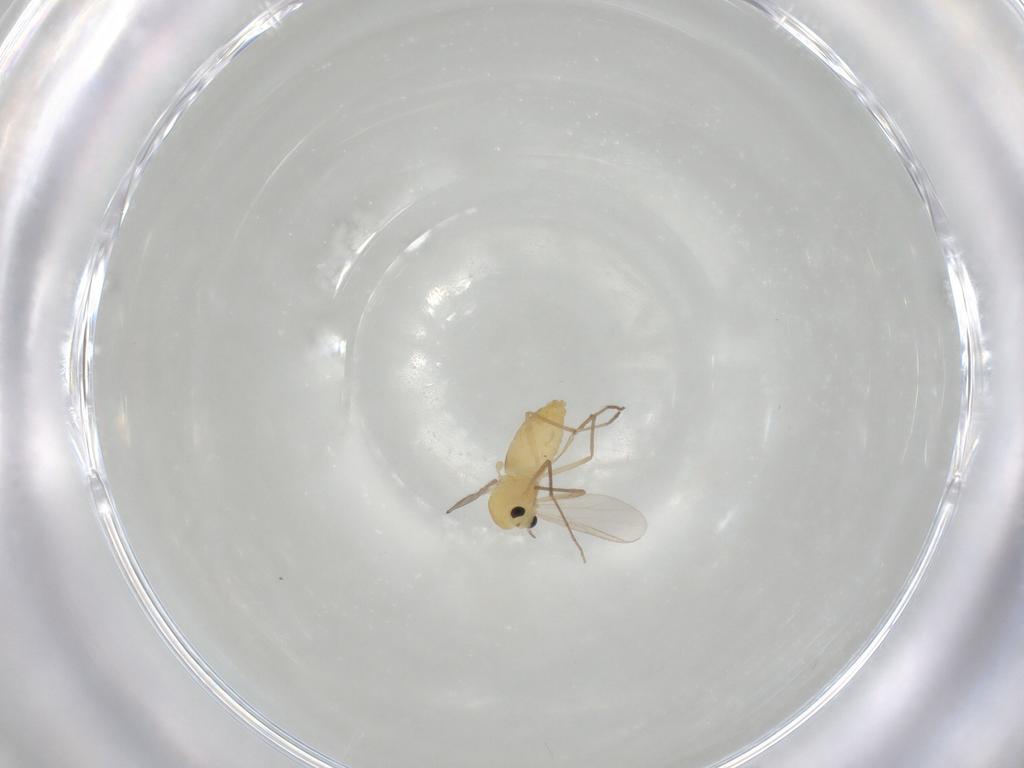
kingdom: Animalia
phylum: Arthropoda
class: Insecta
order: Diptera
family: Chironomidae
